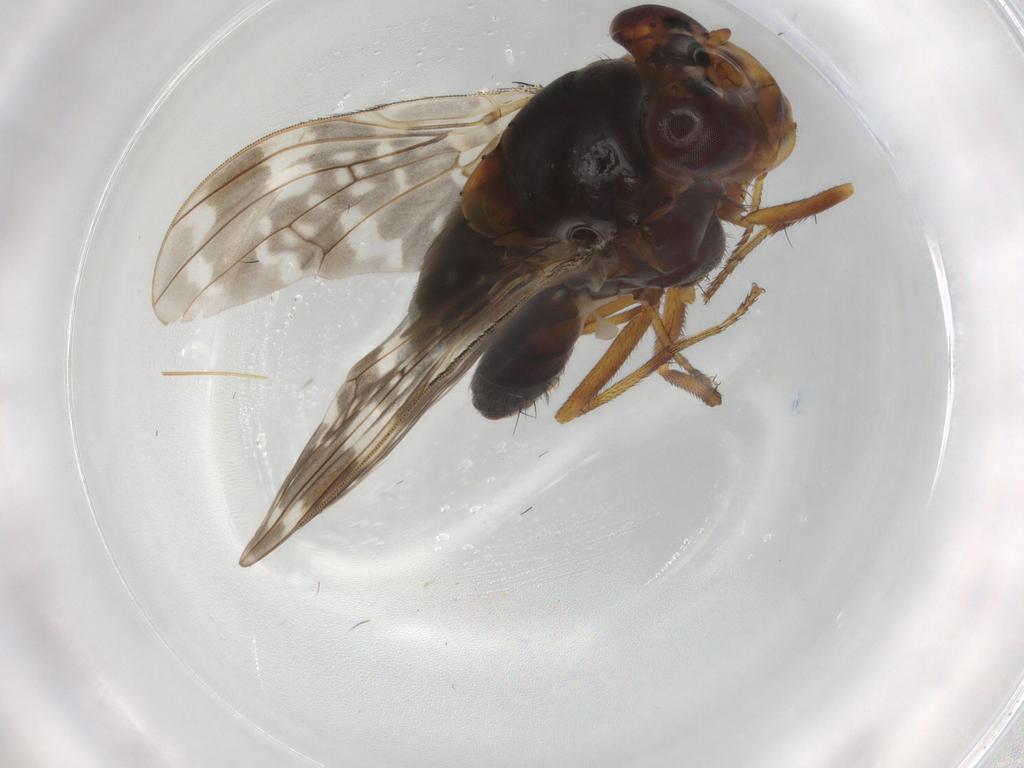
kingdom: Animalia
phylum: Arthropoda
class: Insecta
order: Diptera
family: Lauxaniidae
